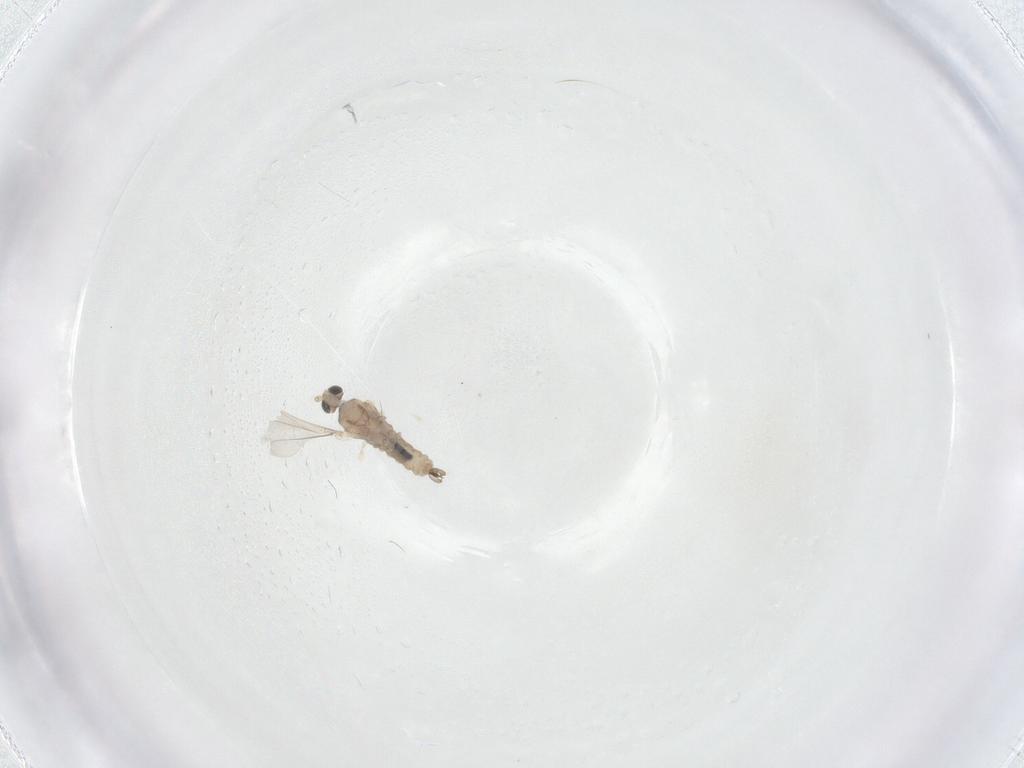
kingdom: Animalia
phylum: Arthropoda
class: Insecta
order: Diptera
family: Cecidomyiidae
